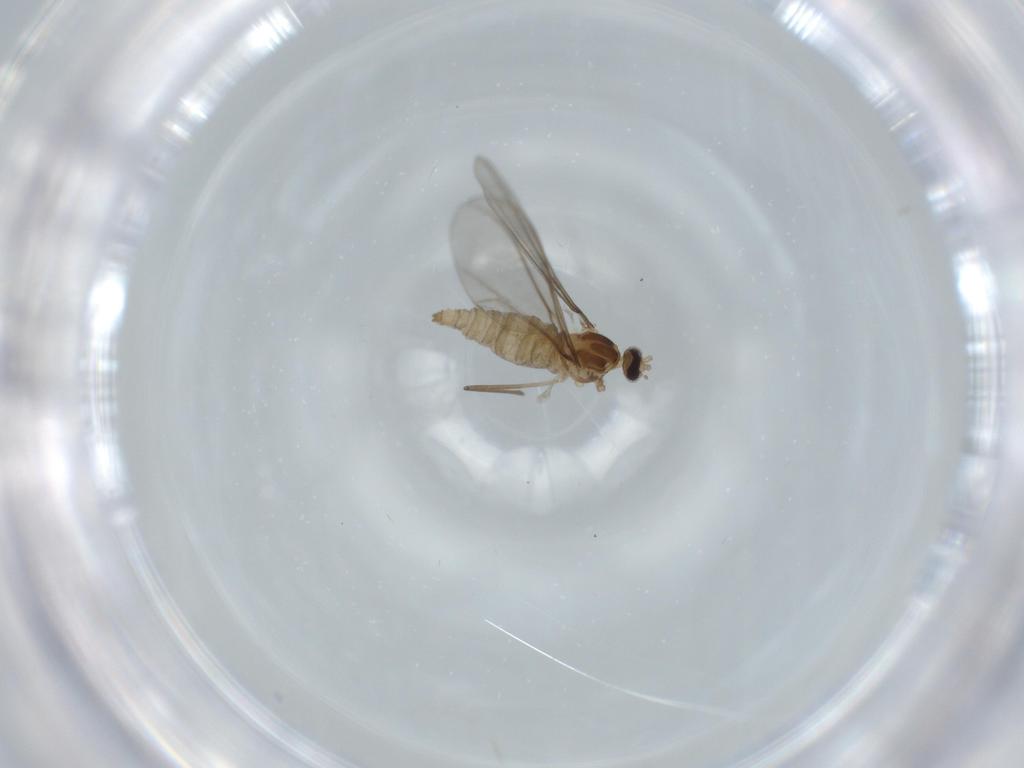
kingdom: Animalia
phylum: Arthropoda
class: Insecta
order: Diptera
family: Cecidomyiidae
